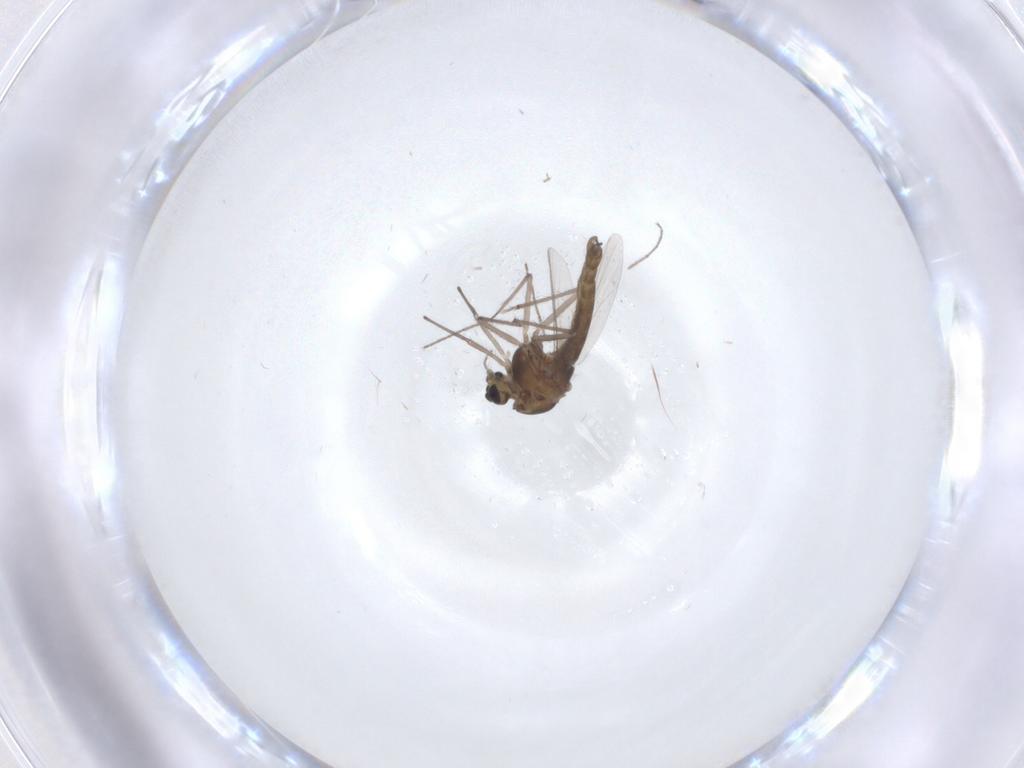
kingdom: Animalia
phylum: Arthropoda
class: Insecta
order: Diptera
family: Chironomidae
